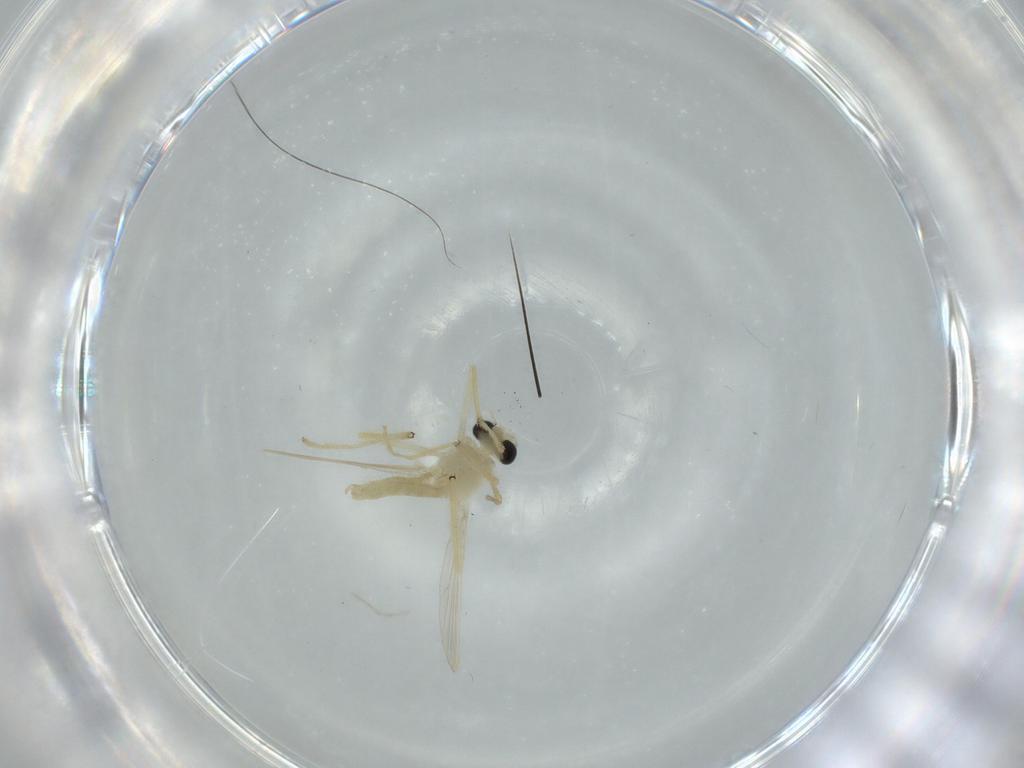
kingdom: Animalia
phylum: Arthropoda
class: Insecta
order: Diptera
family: Chironomidae
